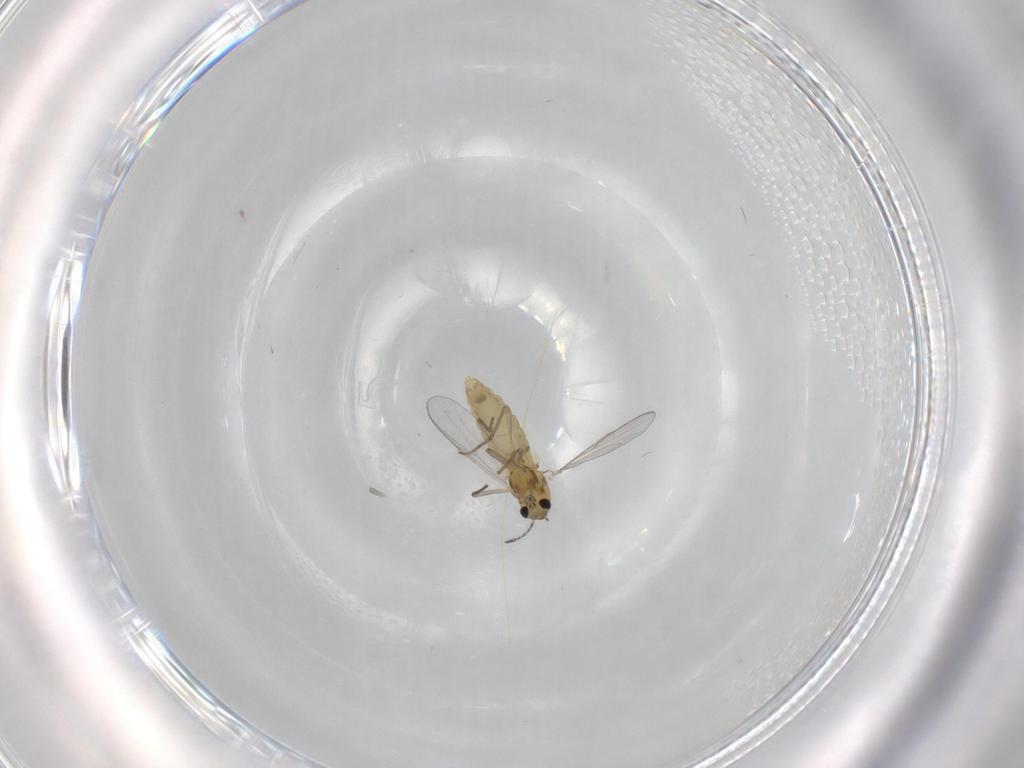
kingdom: Animalia
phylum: Arthropoda
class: Insecta
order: Diptera
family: Chironomidae
